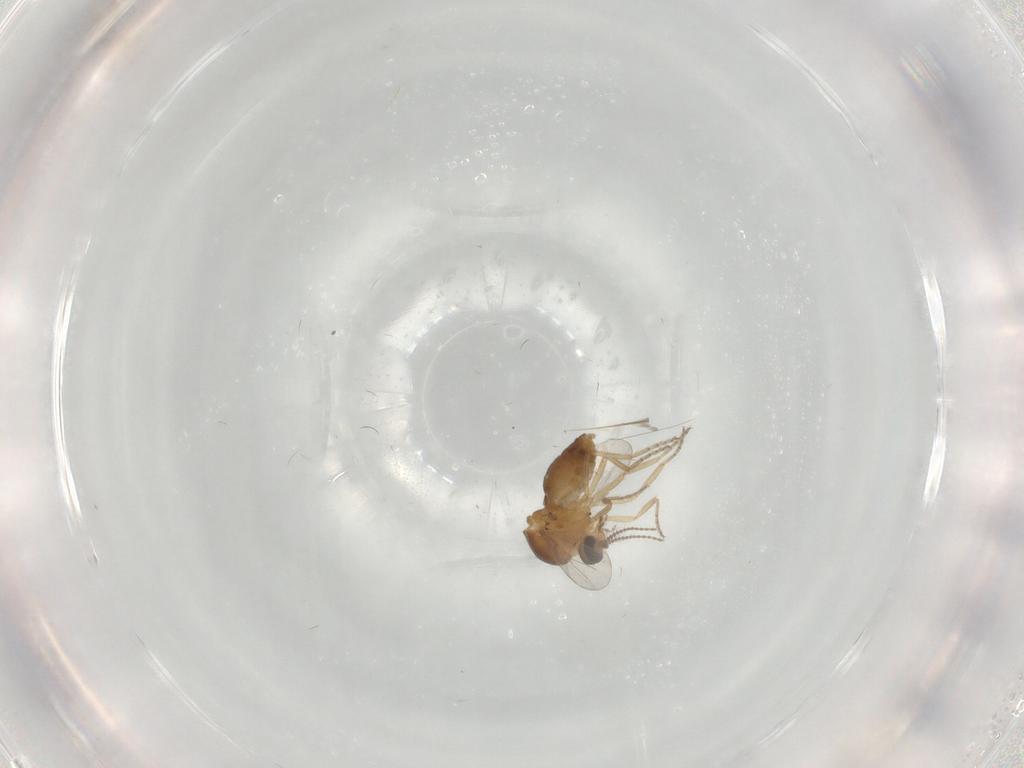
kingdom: Animalia
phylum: Arthropoda
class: Insecta
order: Diptera
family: Ceratopogonidae
